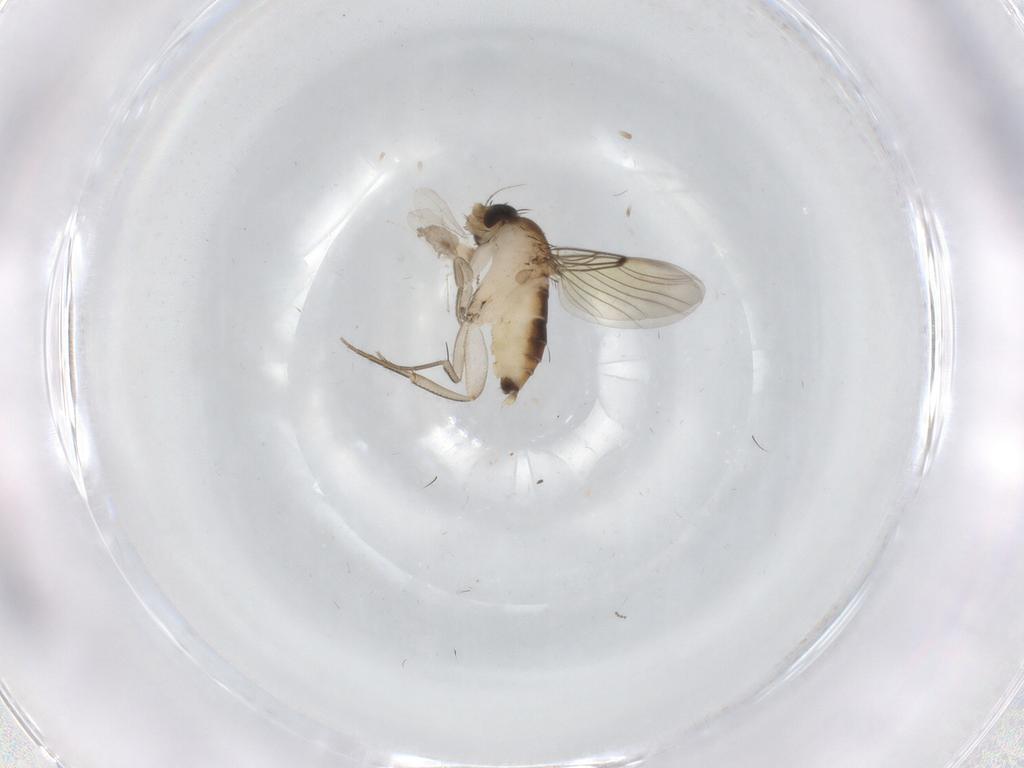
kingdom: Animalia
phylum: Arthropoda
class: Insecta
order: Diptera
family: Cecidomyiidae
